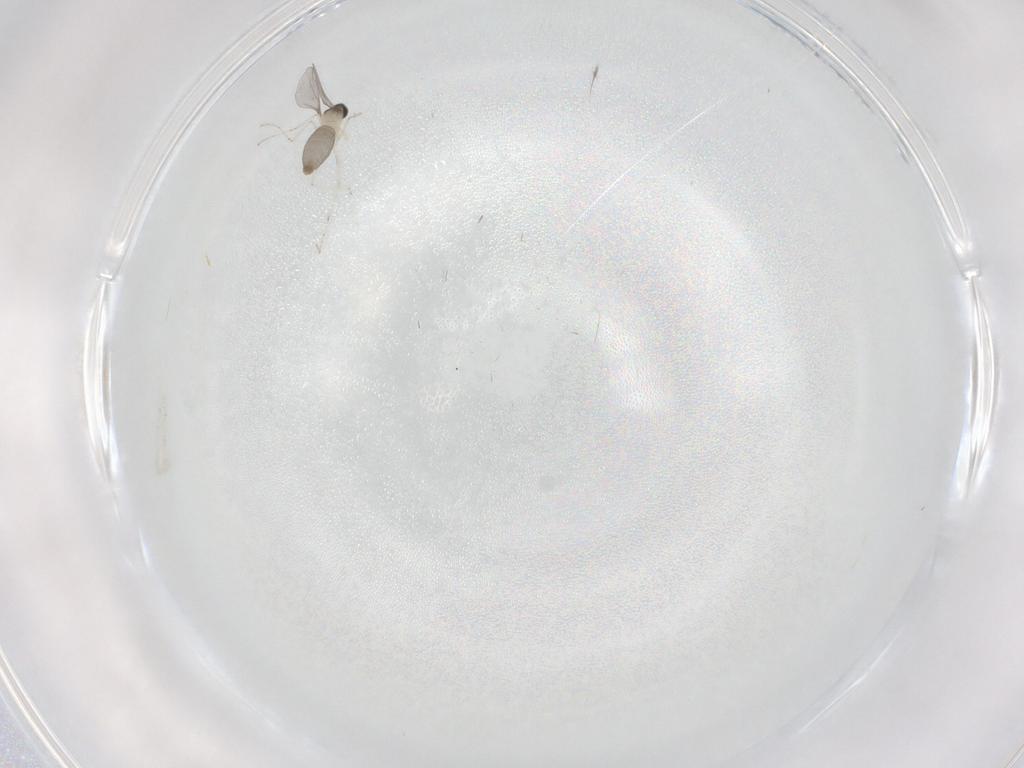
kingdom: Animalia
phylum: Arthropoda
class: Insecta
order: Diptera
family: Cecidomyiidae
